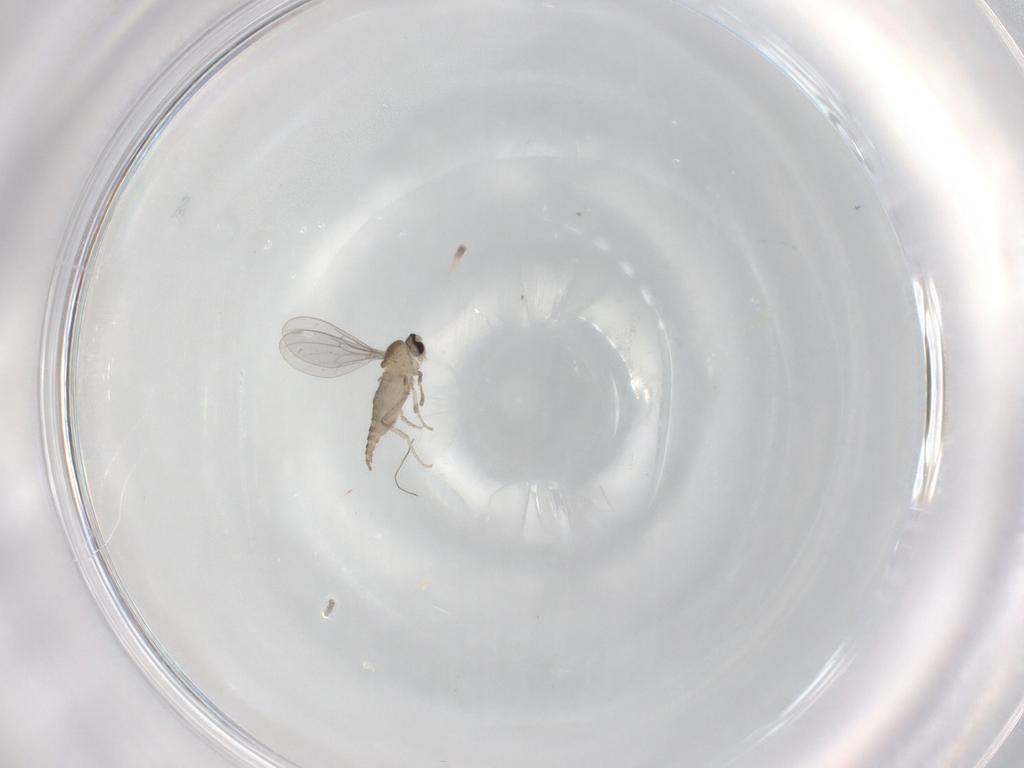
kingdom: Animalia
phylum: Arthropoda
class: Insecta
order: Diptera
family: Cecidomyiidae
